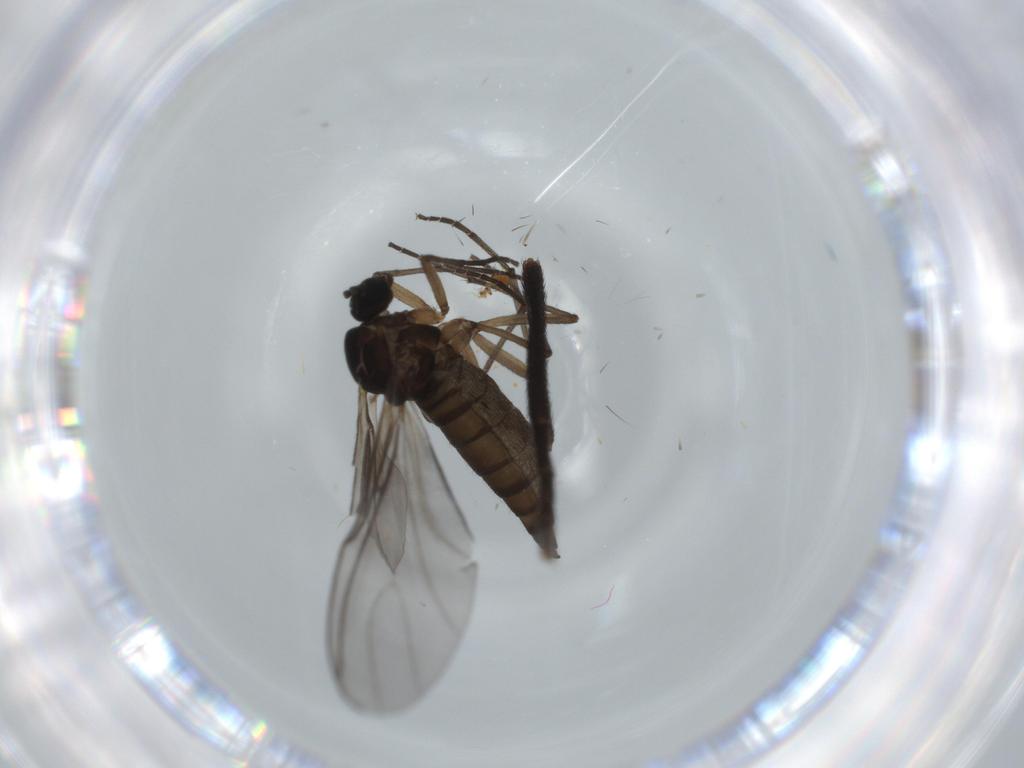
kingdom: Animalia
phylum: Arthropoda
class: Insecta
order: Diptera
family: Calliphoridae
